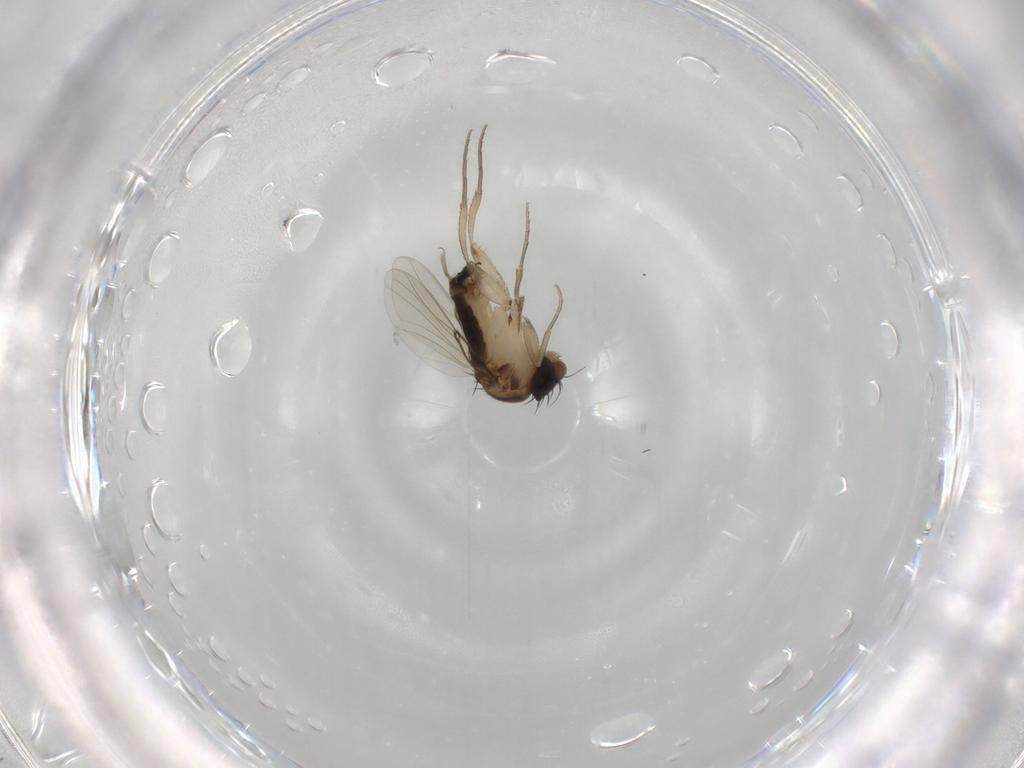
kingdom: Animalia
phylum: Arthropoda
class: Insecta
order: Diptera
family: Phoridae
